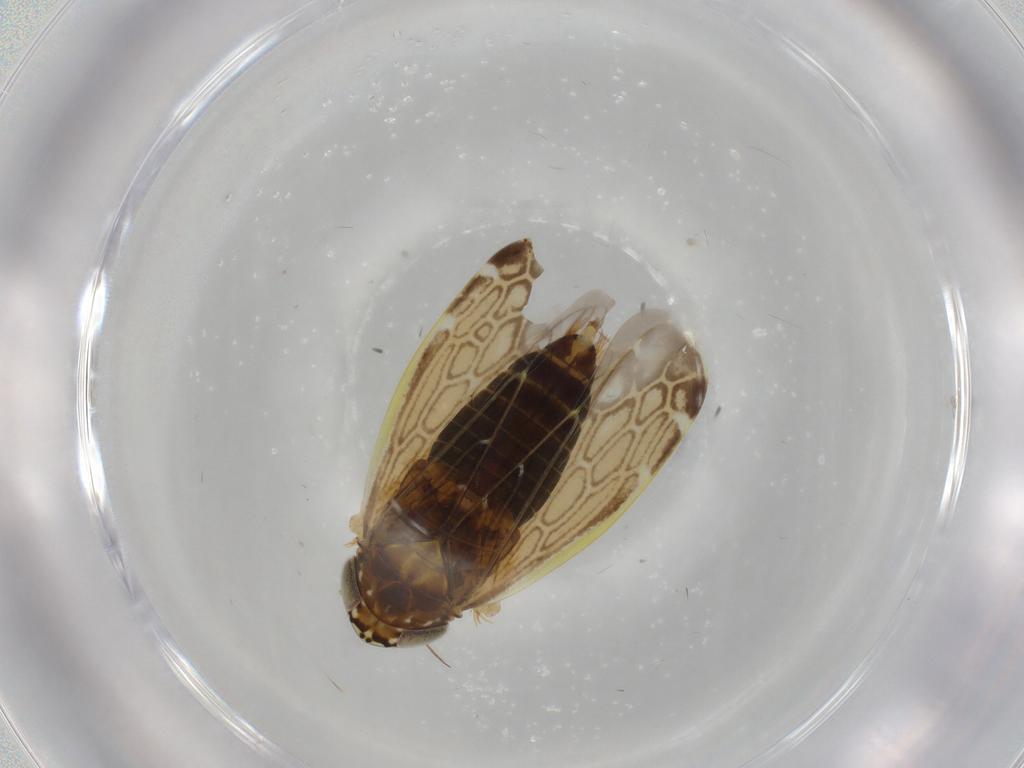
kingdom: Animalia
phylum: Arthropoda
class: Insecta
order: Hemiptera
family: Cicadellidae
